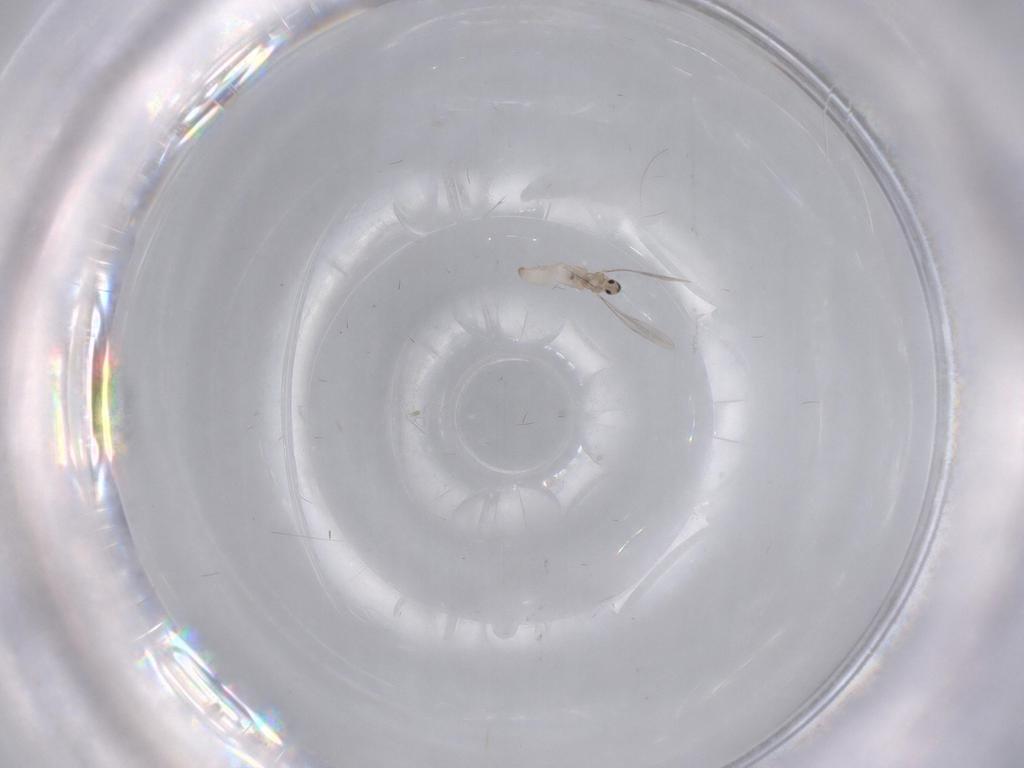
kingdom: Animalia
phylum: Arthropoda
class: Insecta
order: Diptera
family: Cecidomyiidae
